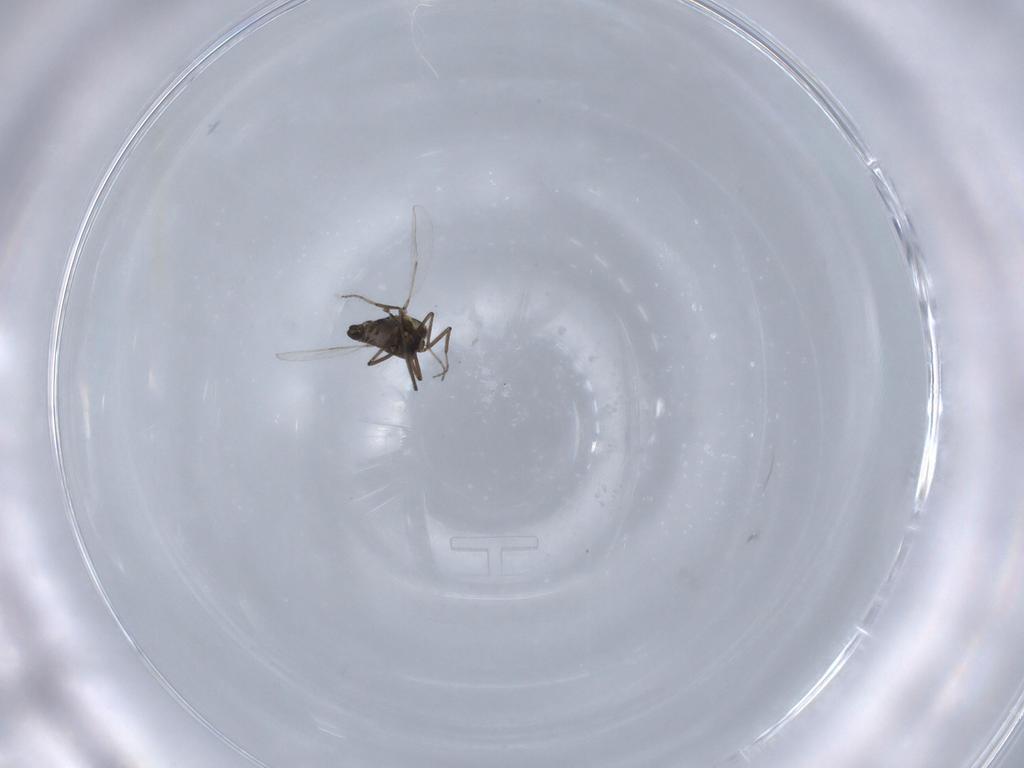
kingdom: Animalia
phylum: Arthropoda
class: Insecta
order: Diptera
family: Ceratopogonidae
